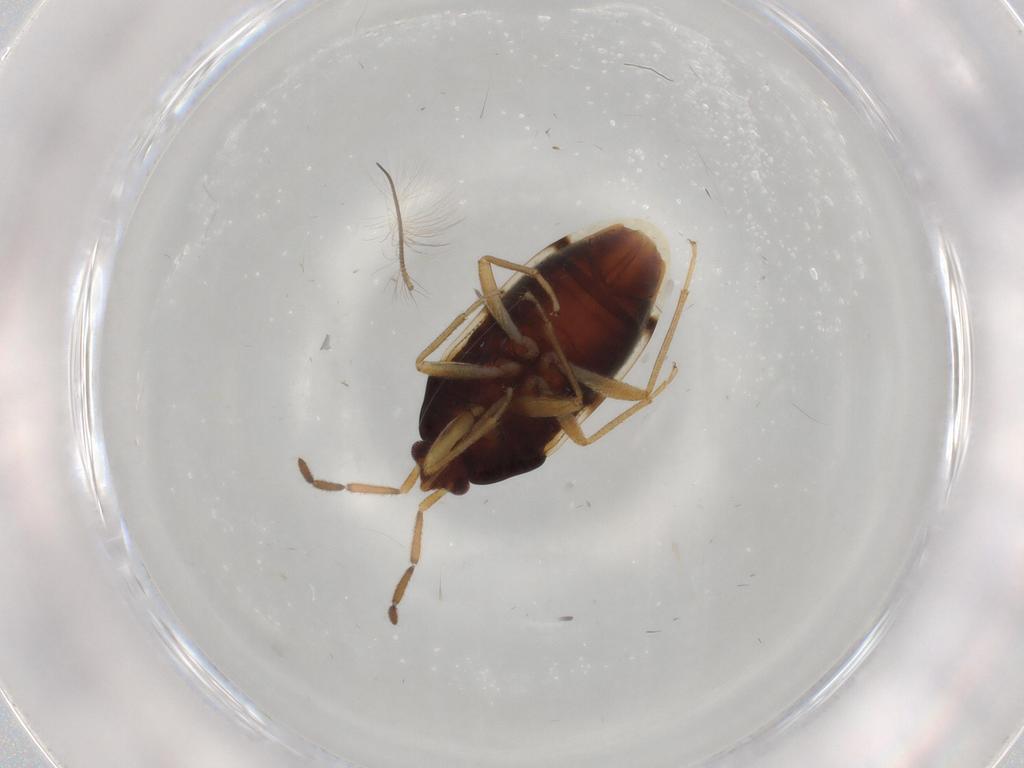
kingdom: Animalia
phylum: Arthropoda
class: Insecta
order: Hemiptera
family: Rhyparochromidae
